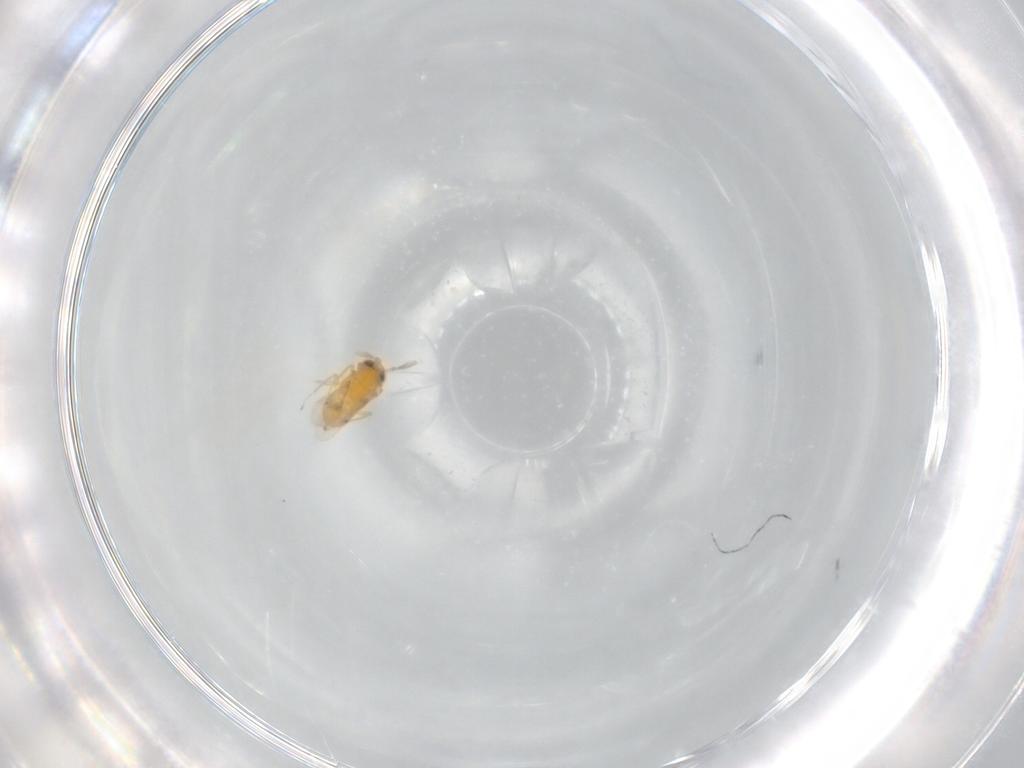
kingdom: Animalia
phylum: Arthropoda
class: Insecta
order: Hymenoptera
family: Encyrtidae
